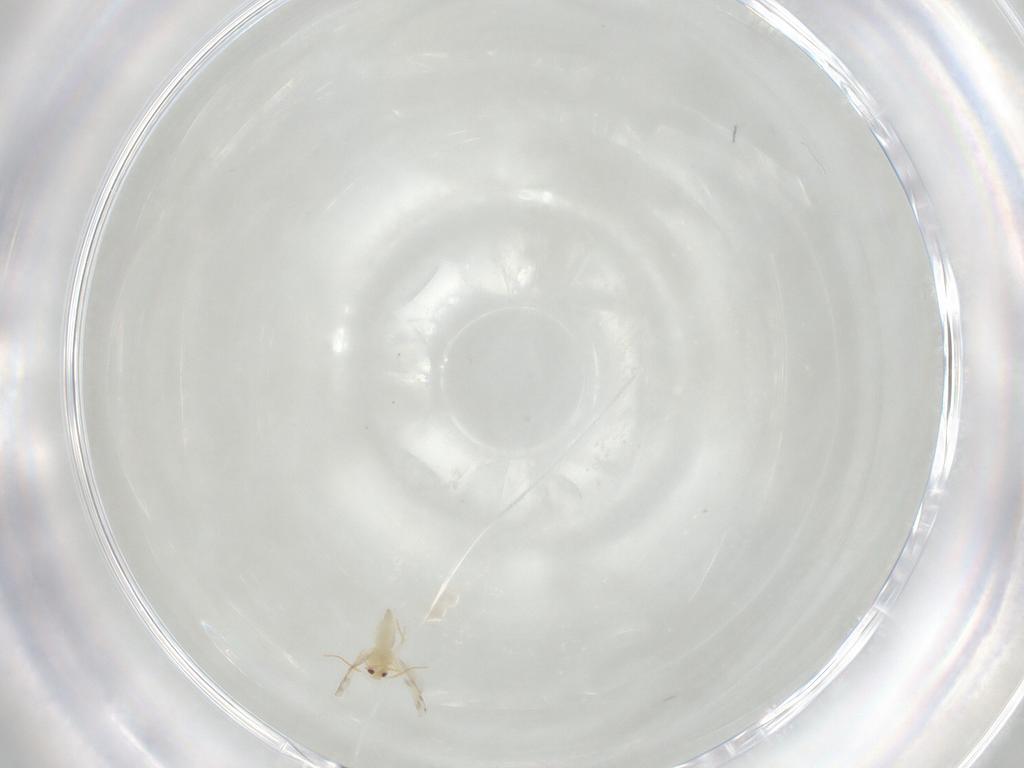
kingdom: Animalia
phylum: Arthropoda
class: Insecta
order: Hemiptera
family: Aleyrodidae
